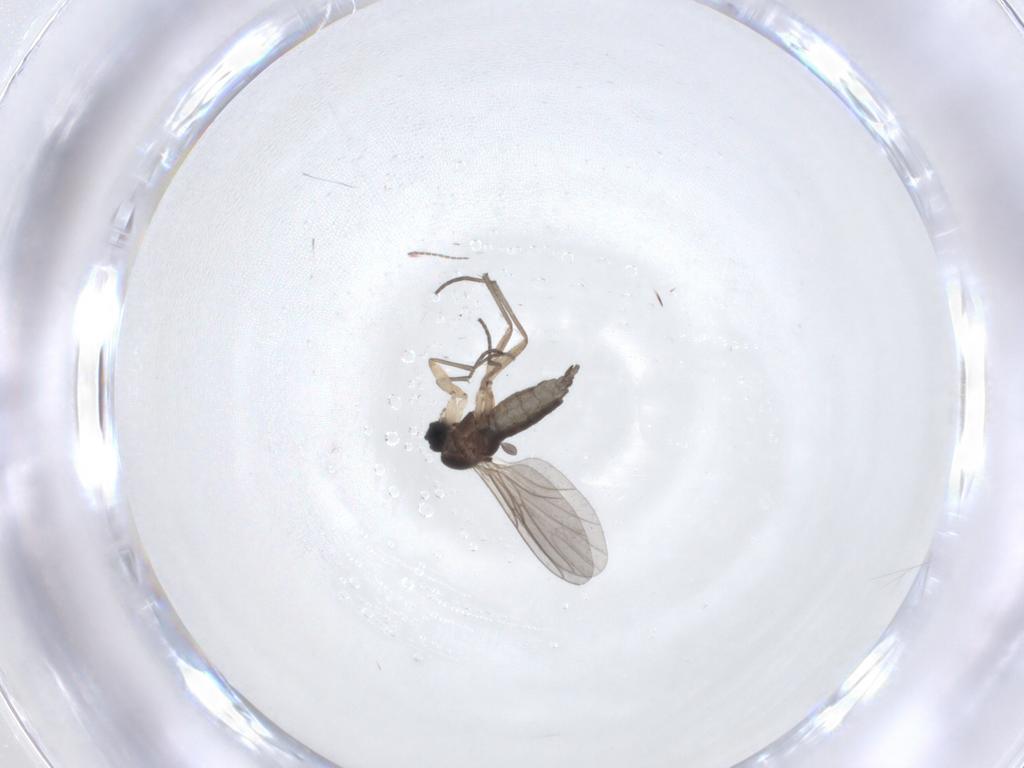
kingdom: Animalia
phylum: Arthropoda
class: Insecta
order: Diptera
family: Sciaridae
